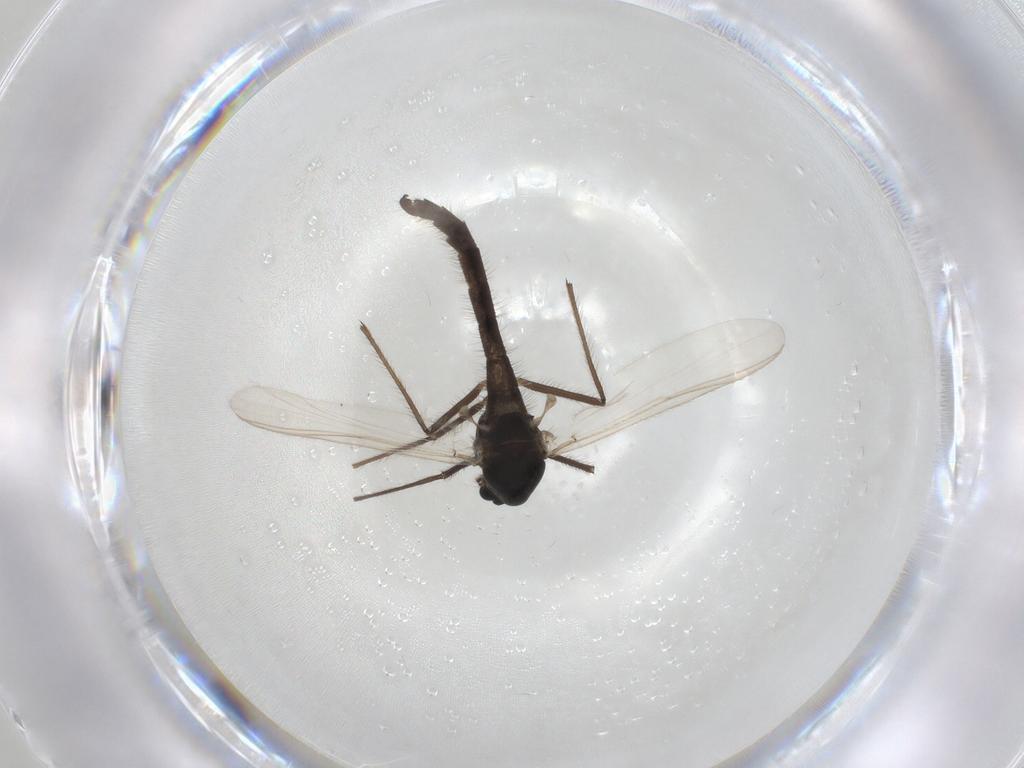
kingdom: Animalia
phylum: Arthropoda
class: Insecta
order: Diptera
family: Chironomidae
